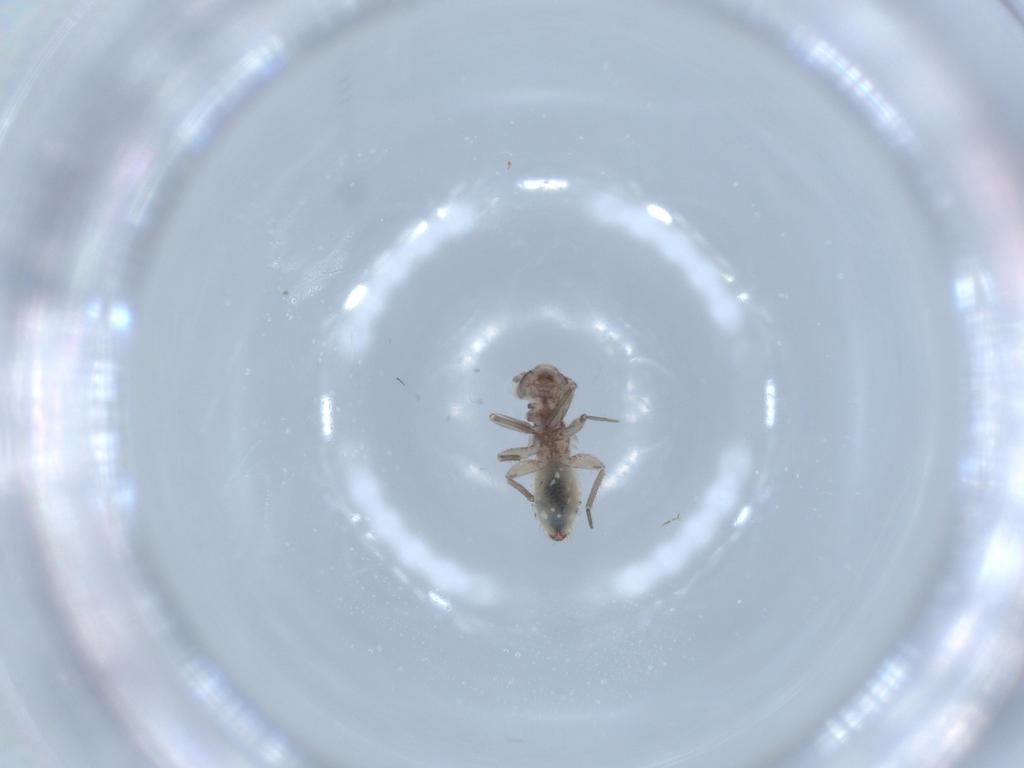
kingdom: Animalia
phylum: Arthropoda
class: Insecta
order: Psocodea
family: Lepidopsocidae
